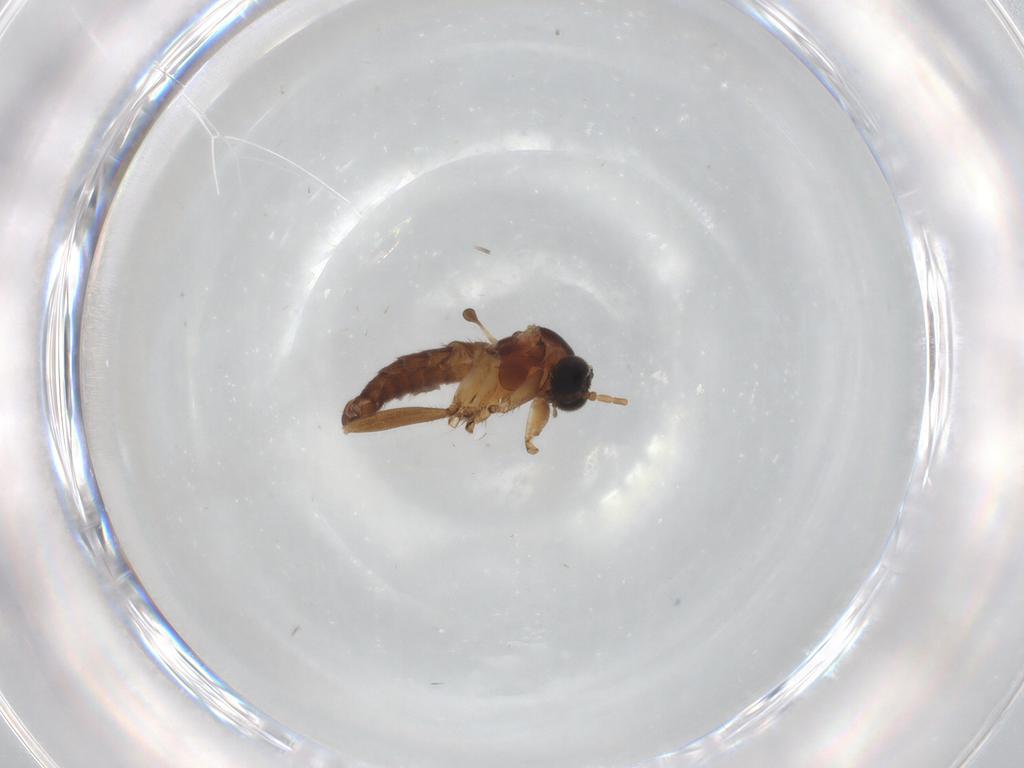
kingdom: Animalia
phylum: Arthropoda
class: Insecta
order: Diptera
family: Sciaridae
